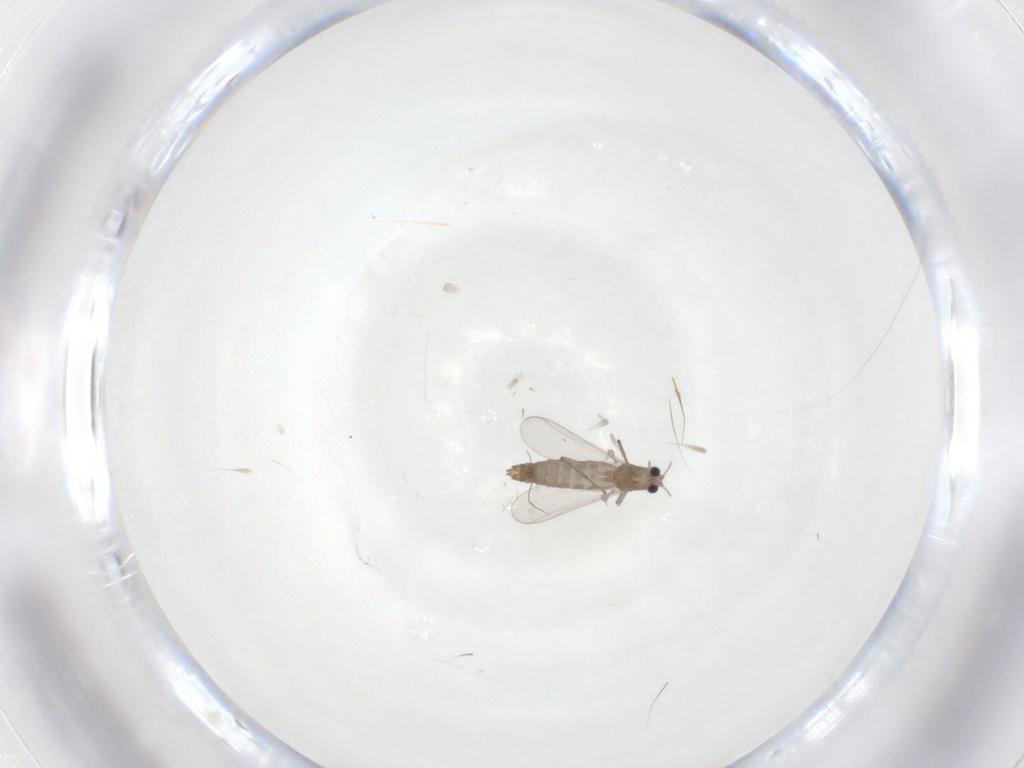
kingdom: Animalia
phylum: Arthropoda
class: Insecta
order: Diptera
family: Chironomidae
